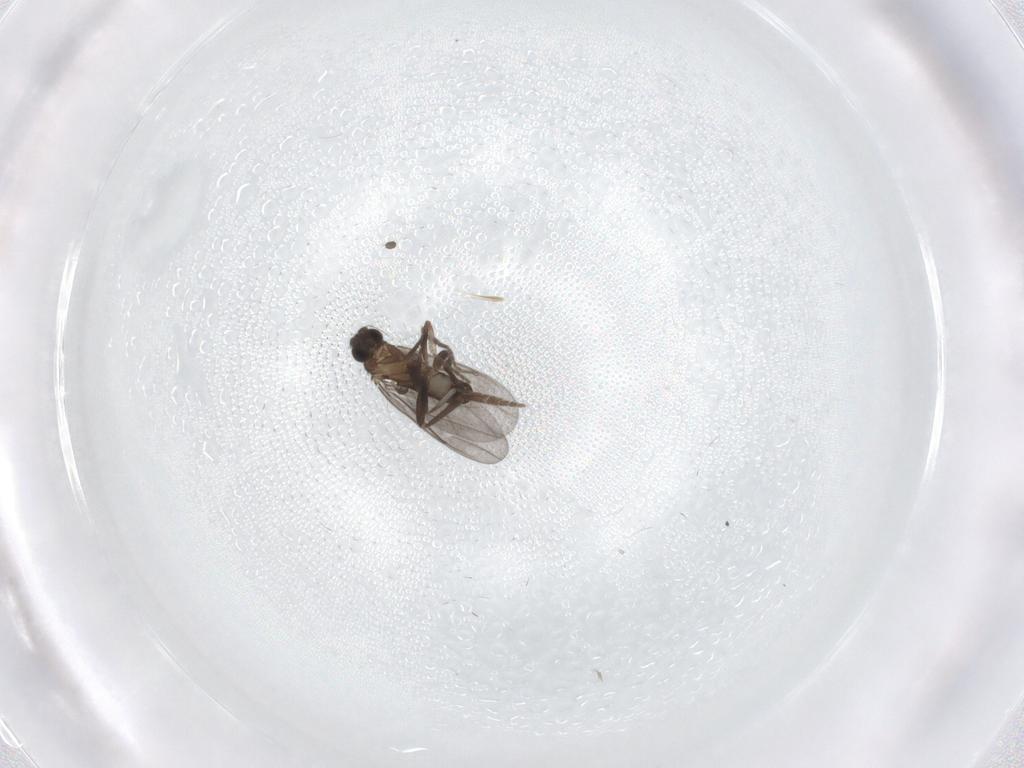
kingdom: Animalia
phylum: Arthropoda
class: Insecta
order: Diptera
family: Phoridae
